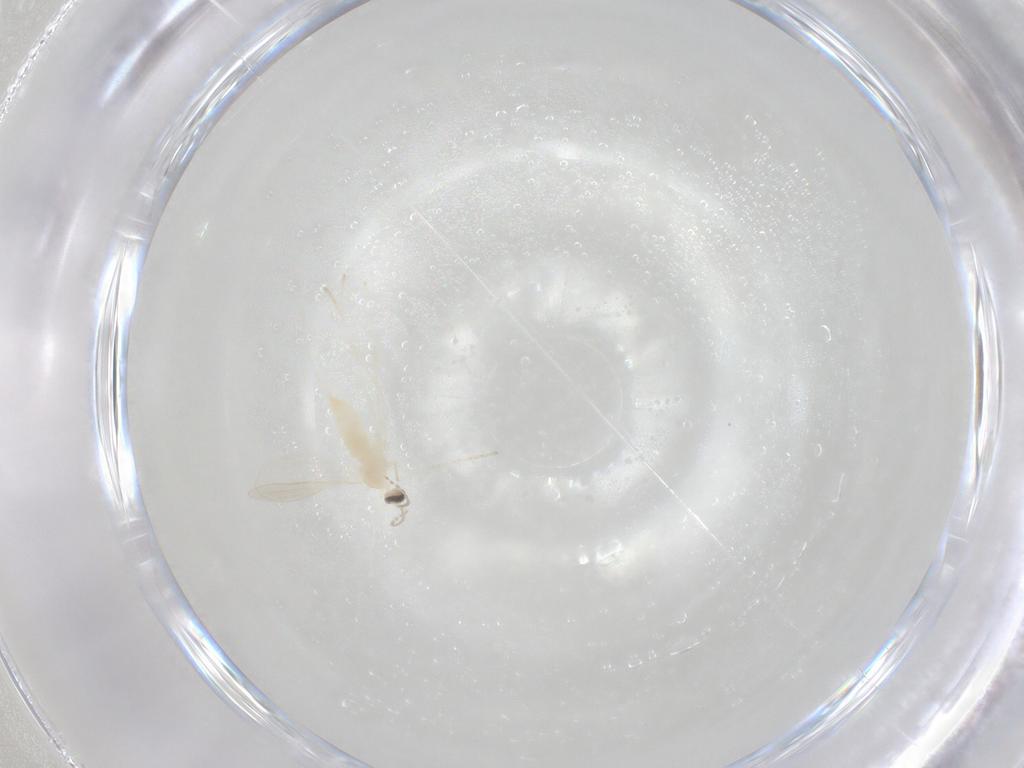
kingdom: Animalia
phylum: Arthropoda
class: Insecta
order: Diptera
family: Cecidomyiidae
